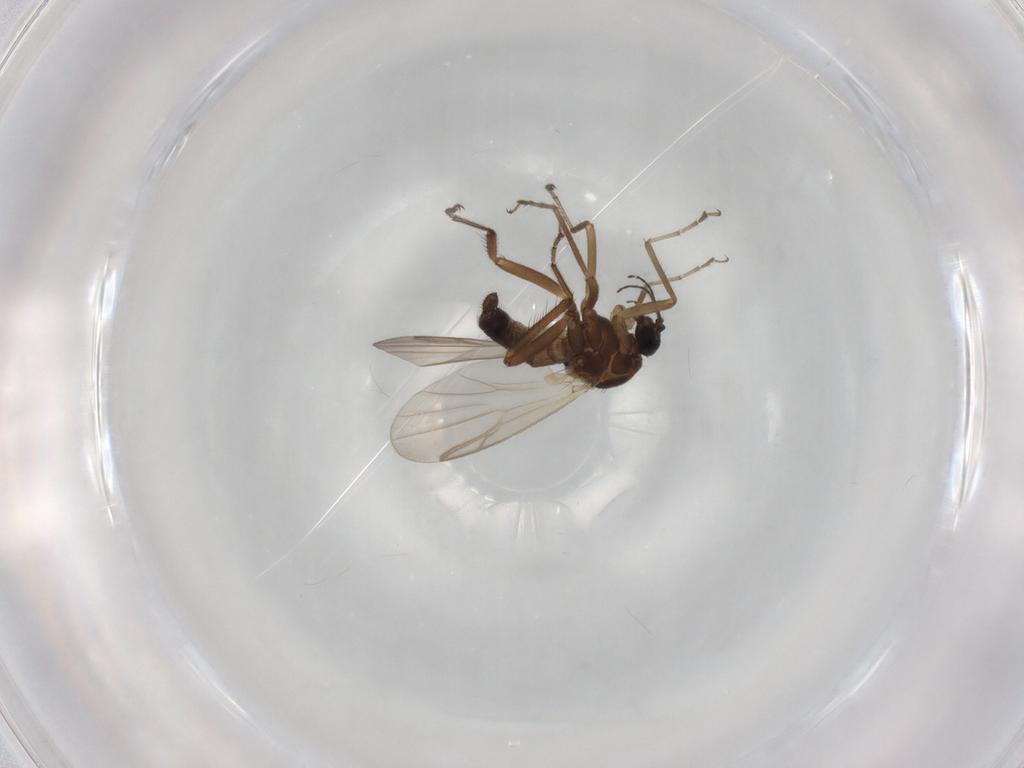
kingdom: Animalia
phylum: Arthropoda
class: Insecta
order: Diptera
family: Ceratopogonidae
